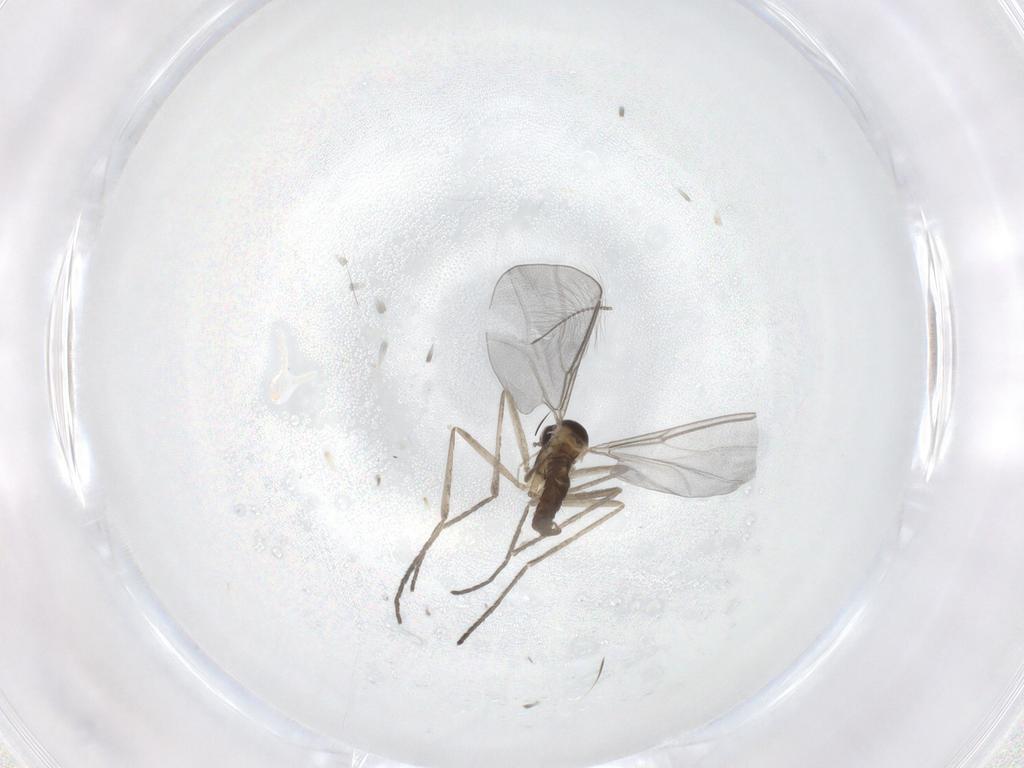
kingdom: Animalia
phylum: Arthropoda
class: Insecta
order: Diptera
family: Cecidomyiidae
